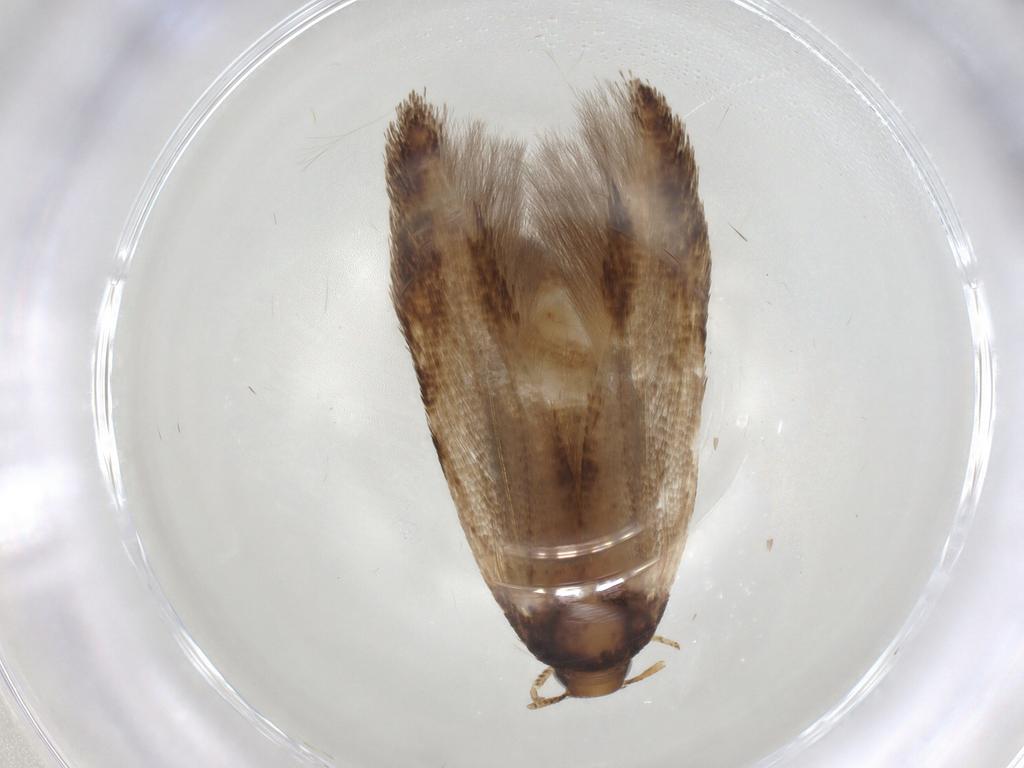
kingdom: Animalia
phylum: Arthropoda
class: Insecta
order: Lepidoptera
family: Cosmopterigidae
